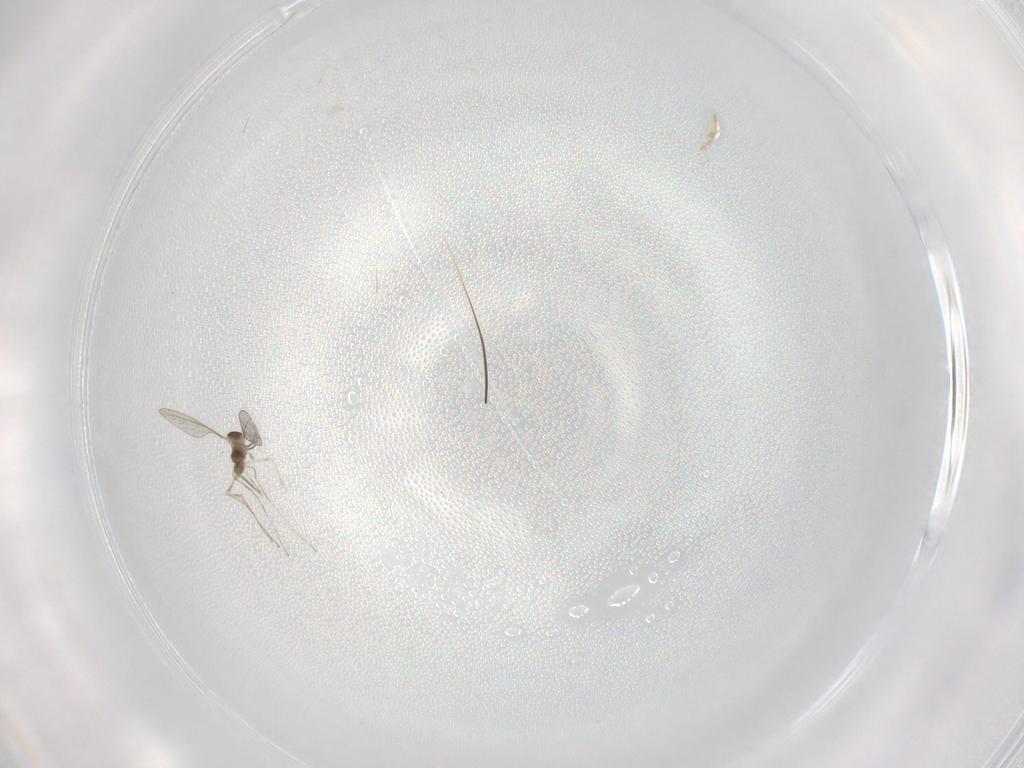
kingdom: Animalia
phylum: Arthropoda
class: Insecta
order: Diptera
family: Cecidomyiidae
